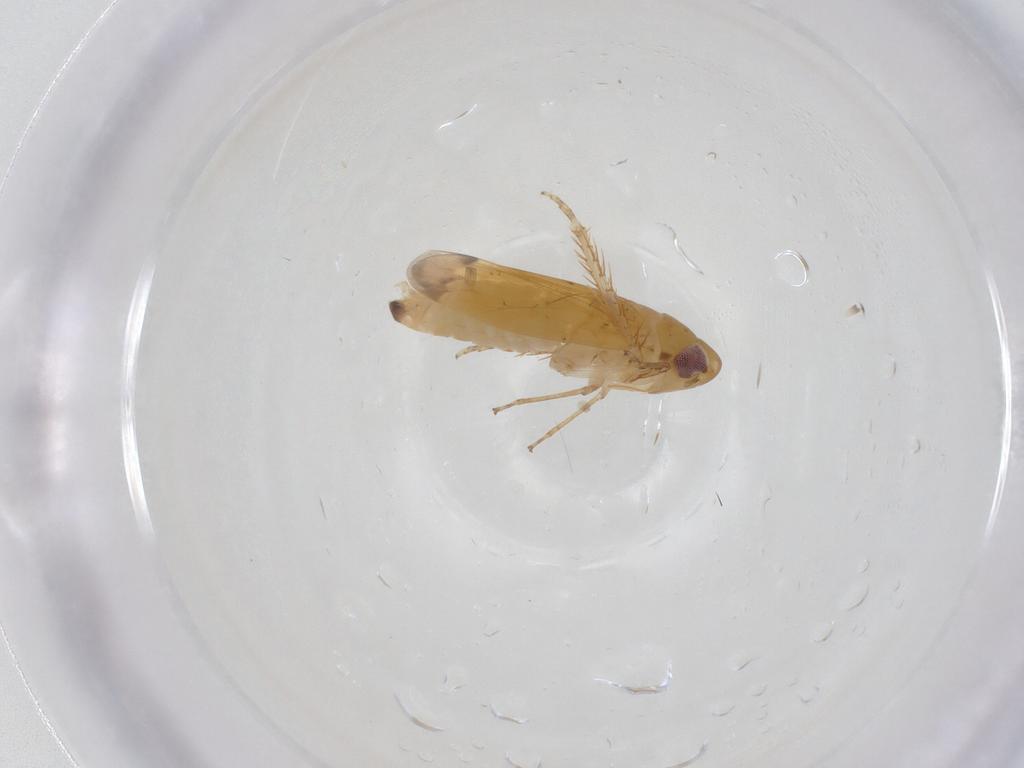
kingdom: Animalia
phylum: Arthropoda
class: Insecta
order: Hemiptera
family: Cicadellidae
